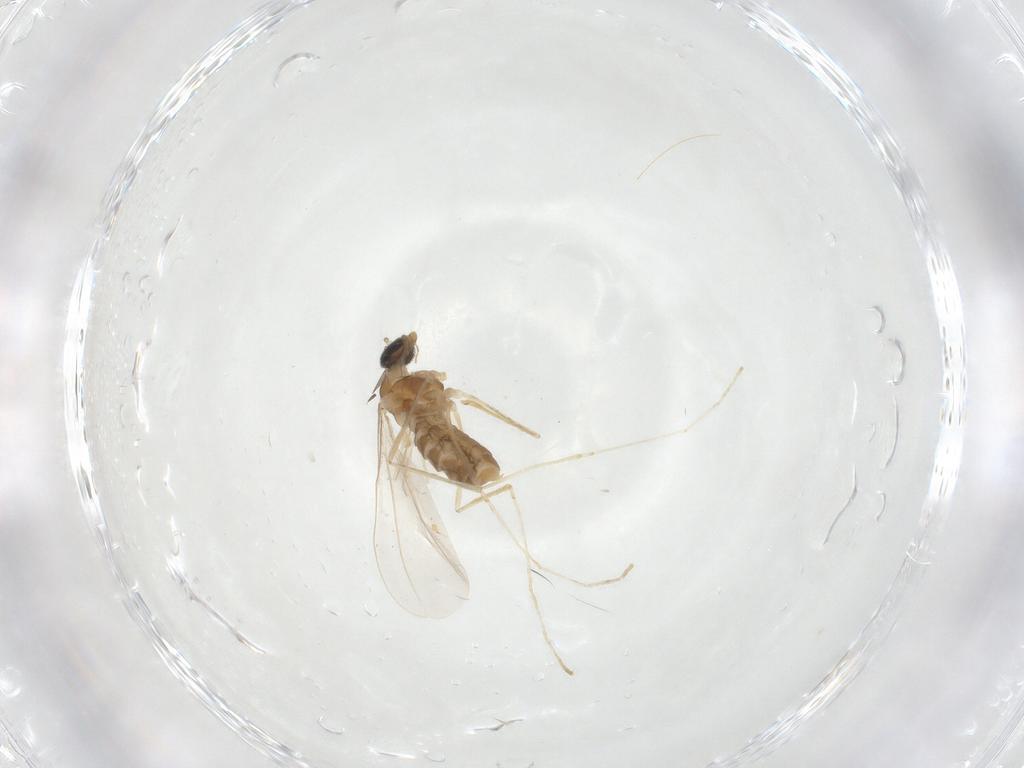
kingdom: Animalia
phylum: Arthropoda
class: Insecta
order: Diptera
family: Cecidomyiidae
